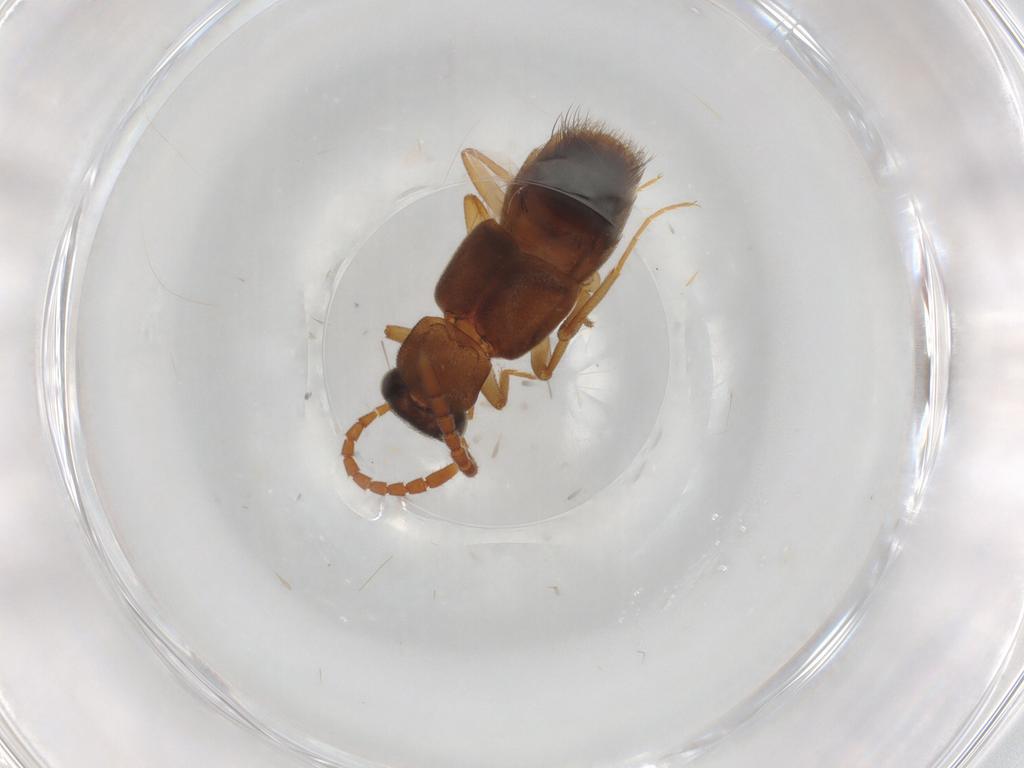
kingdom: Animalia
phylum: Arthropoda
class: Insecta
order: Coleoptera
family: Staphylinidae
